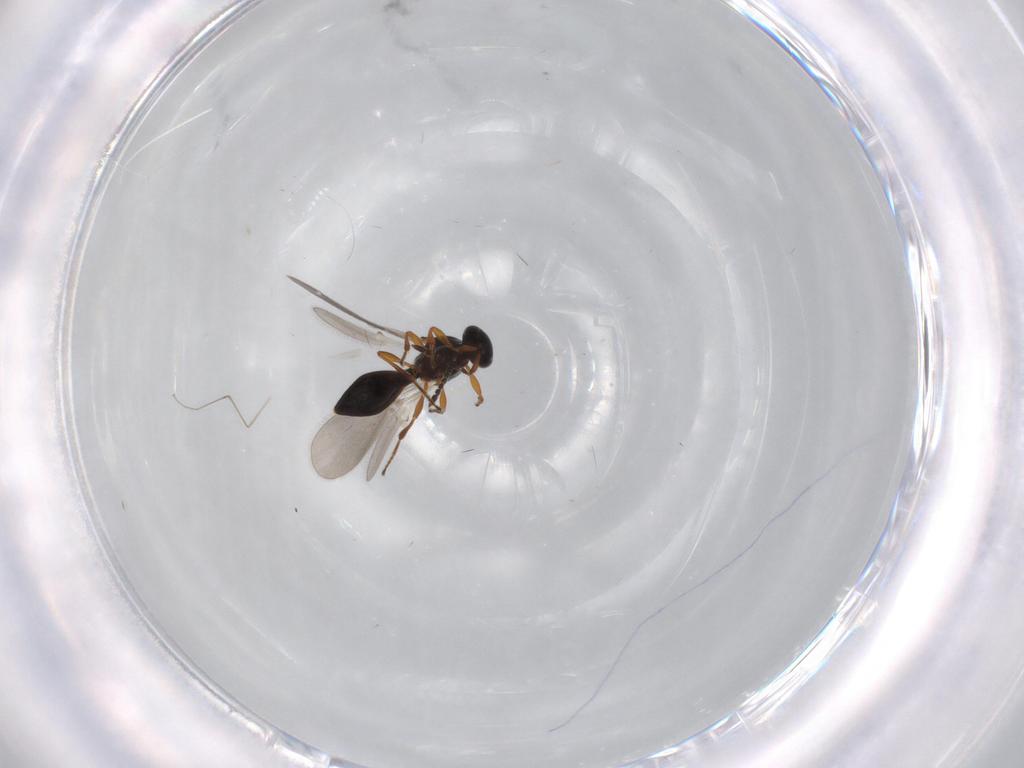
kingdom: Animalia
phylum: Arthropoda
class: Insecta
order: Hymenoptera
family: Platygastridae
